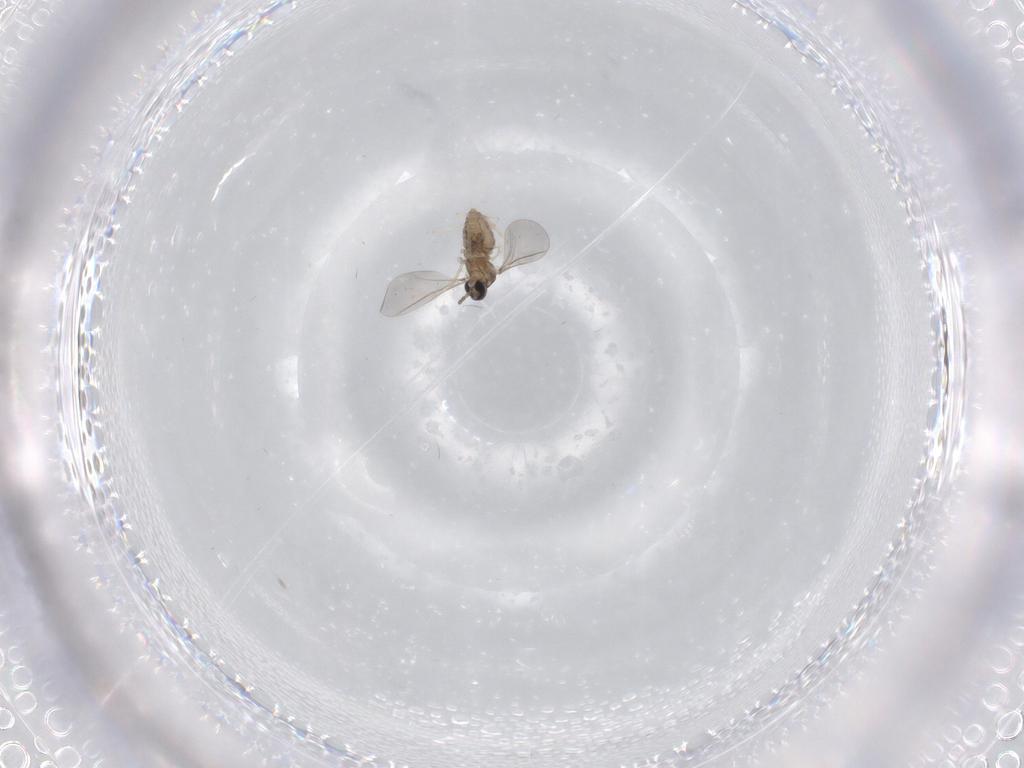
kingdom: Animalia
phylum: Arthropoda
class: Insecta
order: Diptera
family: Cecidomyiidae
